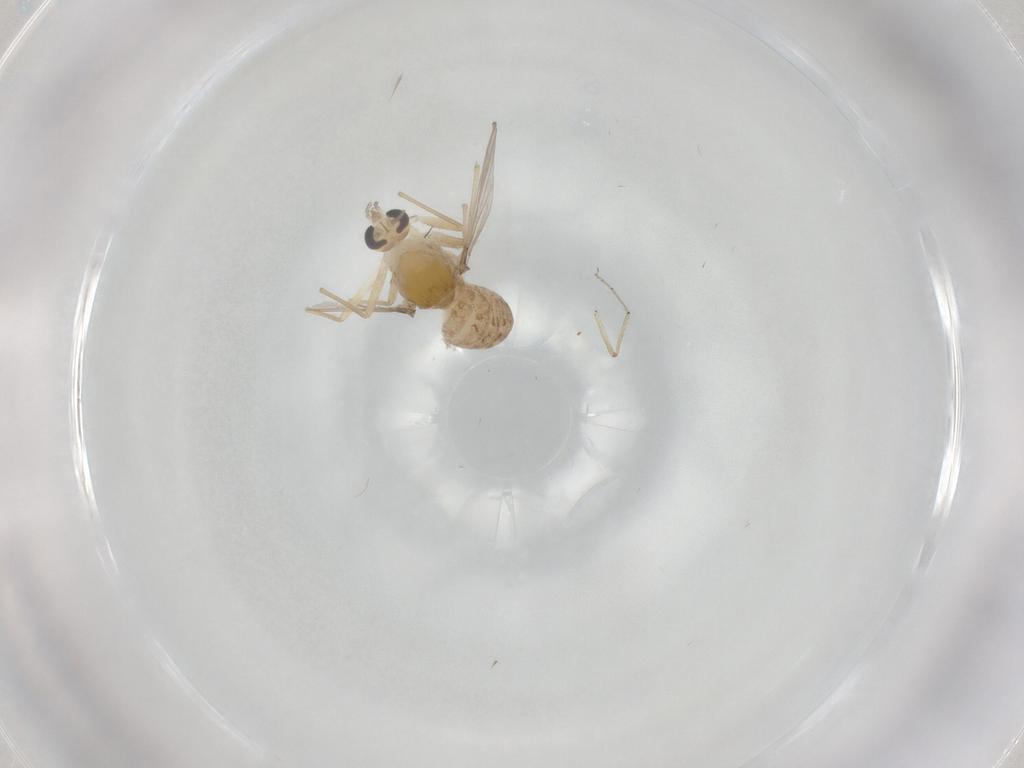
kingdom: Animalia
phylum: Arthropoda
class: Insecta
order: Diptera
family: Chironomidae
